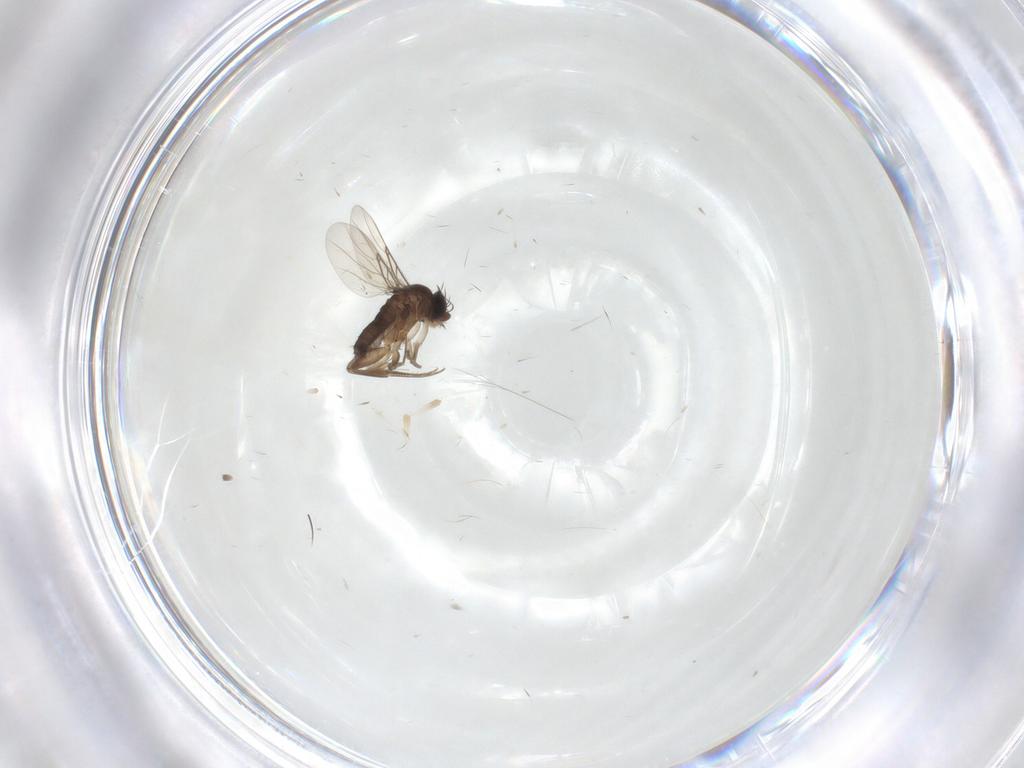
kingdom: Animalia
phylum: Arthropoda
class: Insecta
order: Diptera
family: Phoridae
